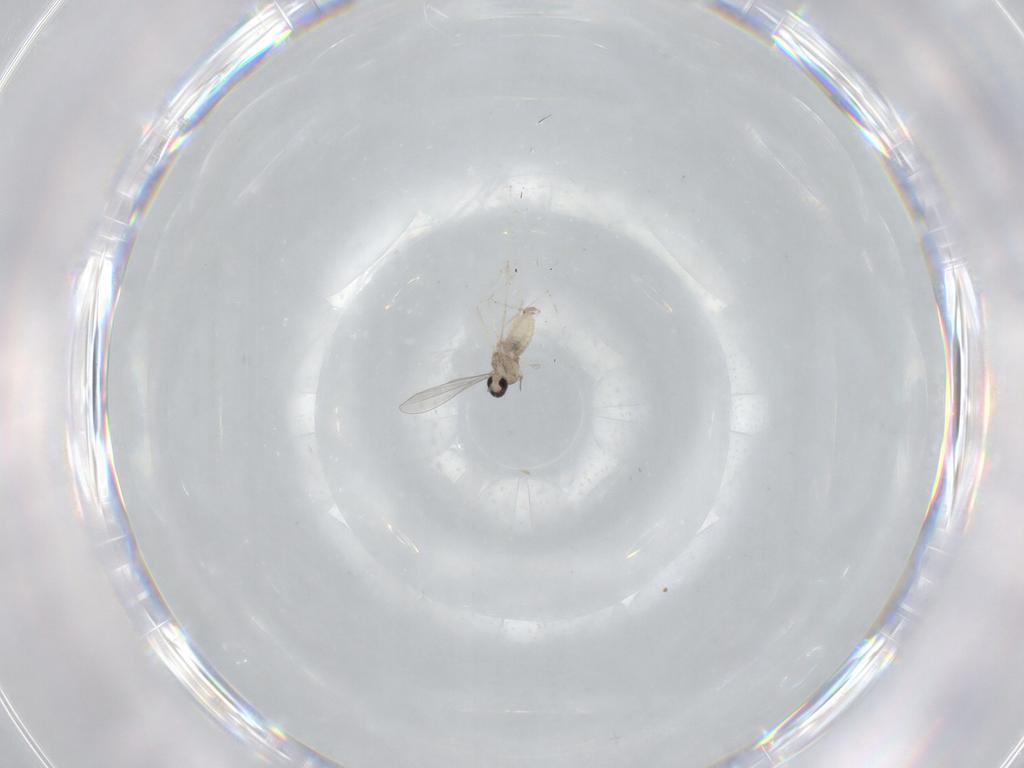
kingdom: Animalia
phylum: Arthropoda
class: Insecta
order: Diptera
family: Cecidomyiidae
